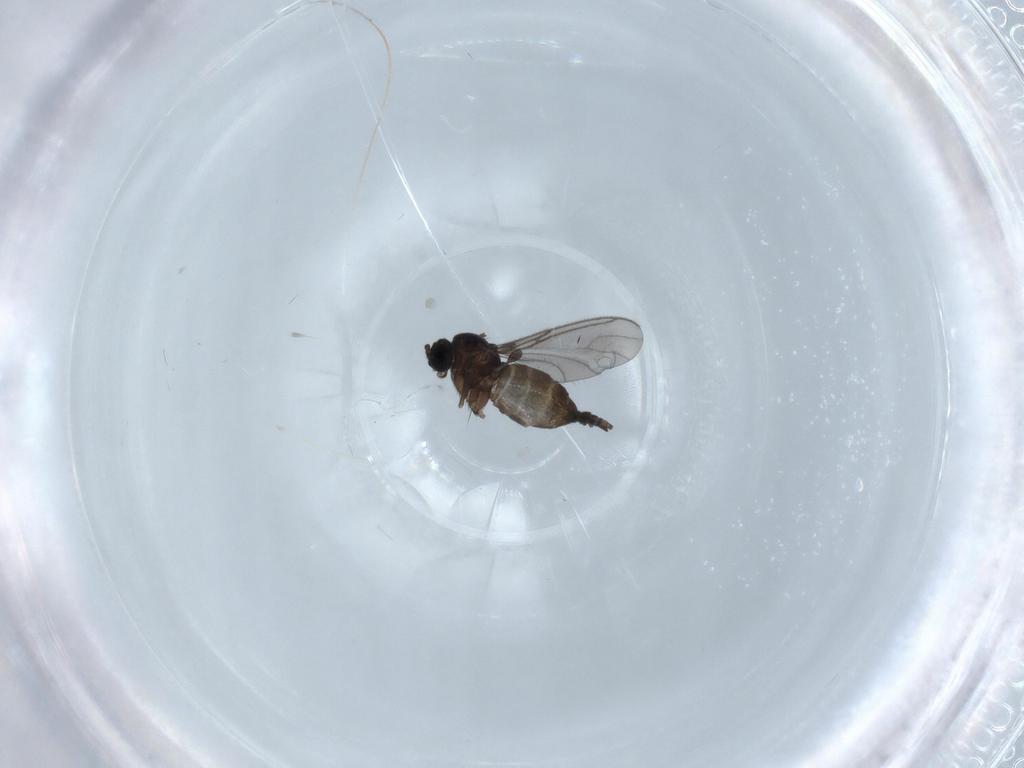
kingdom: Animalia
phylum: Arthropoda
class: Insecta
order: Diptera
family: Sciaridae
